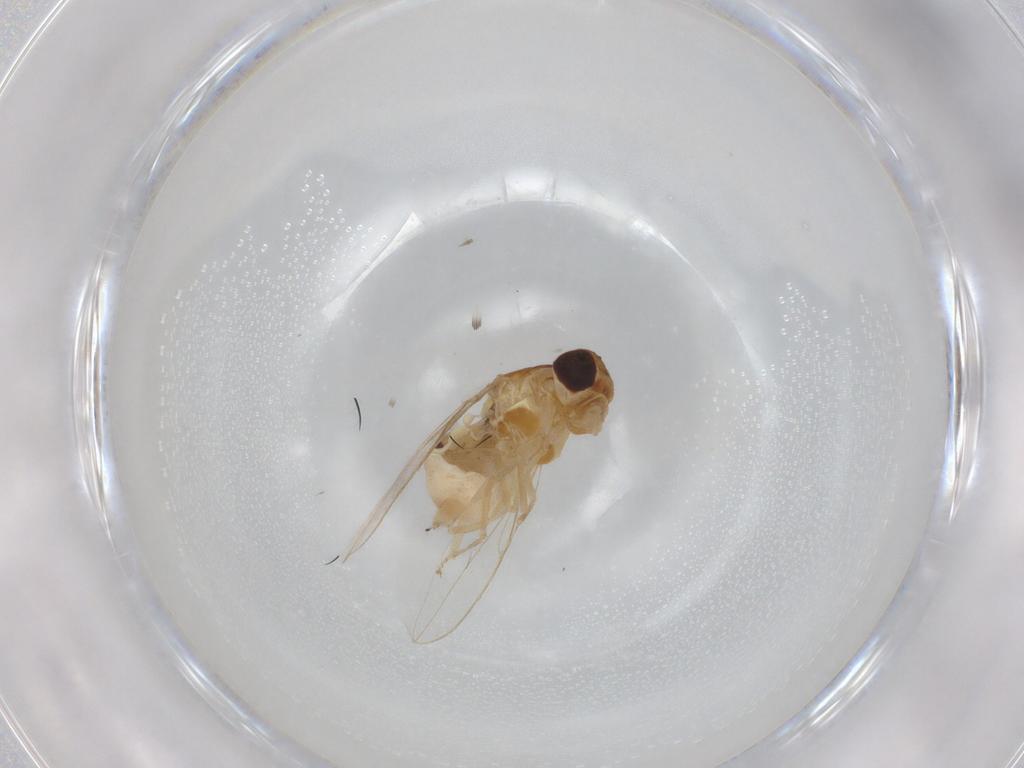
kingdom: Animalia
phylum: Arthropoda
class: Insecta
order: Diptera
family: Asteiidae
